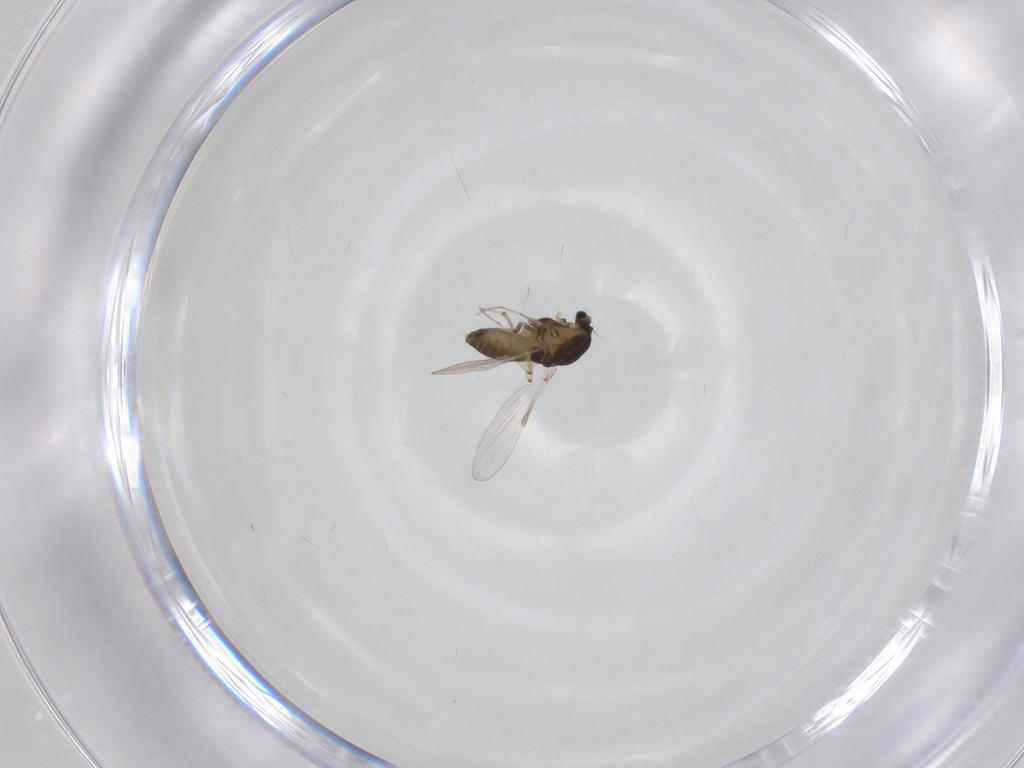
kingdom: Animalia
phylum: Arthropoda
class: Insecta
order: Diptera
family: Chironomidae
